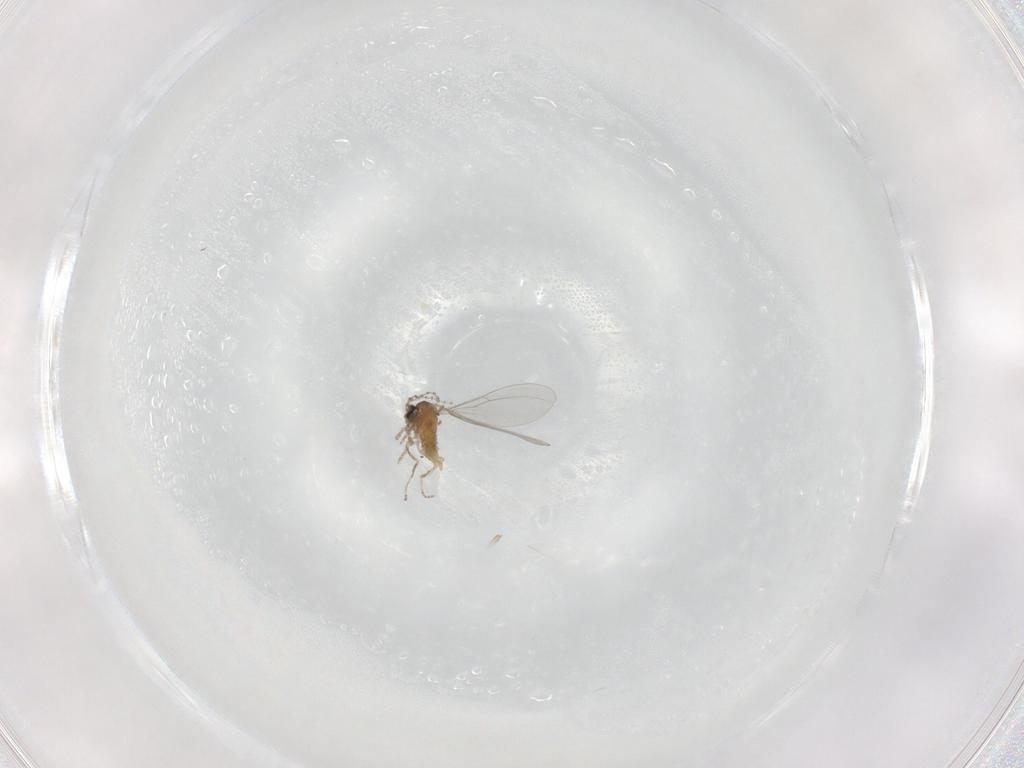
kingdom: Animalia
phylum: Arthropoda
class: Insecta
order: Diptera
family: Cecidomyiidae
